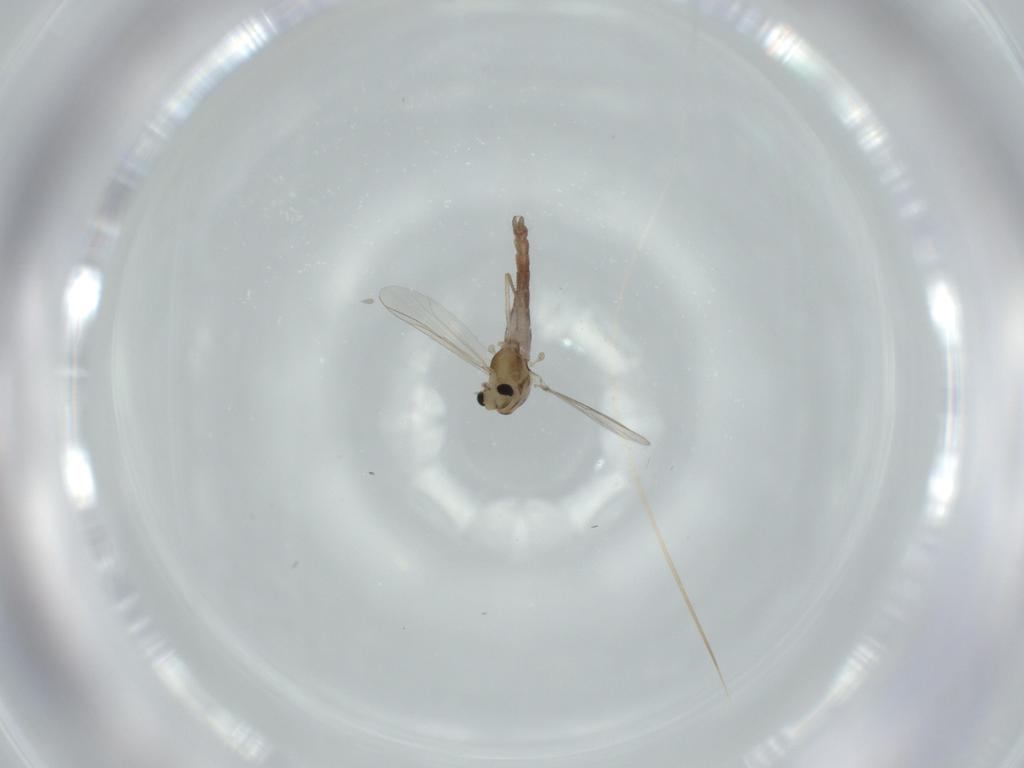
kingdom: Animalia
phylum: Arthropoda
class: Insecta
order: Diptera
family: Chironomidae
